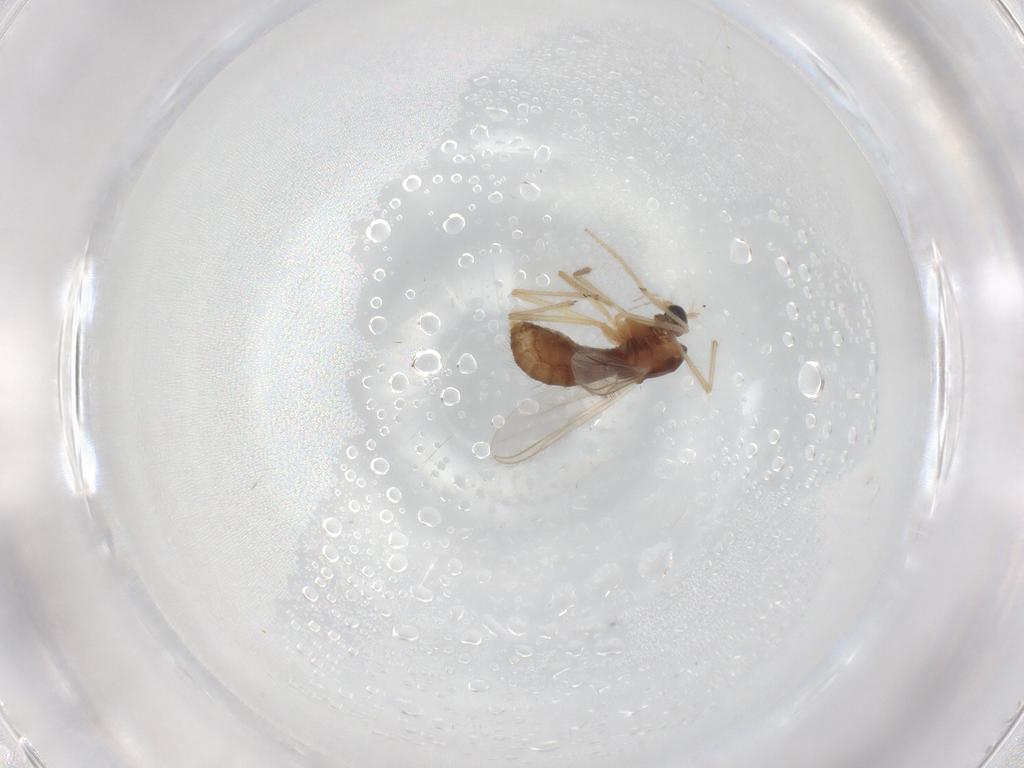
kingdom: Animalia
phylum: Arthropoda
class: Insecta
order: Diptera
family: Chironomidae
